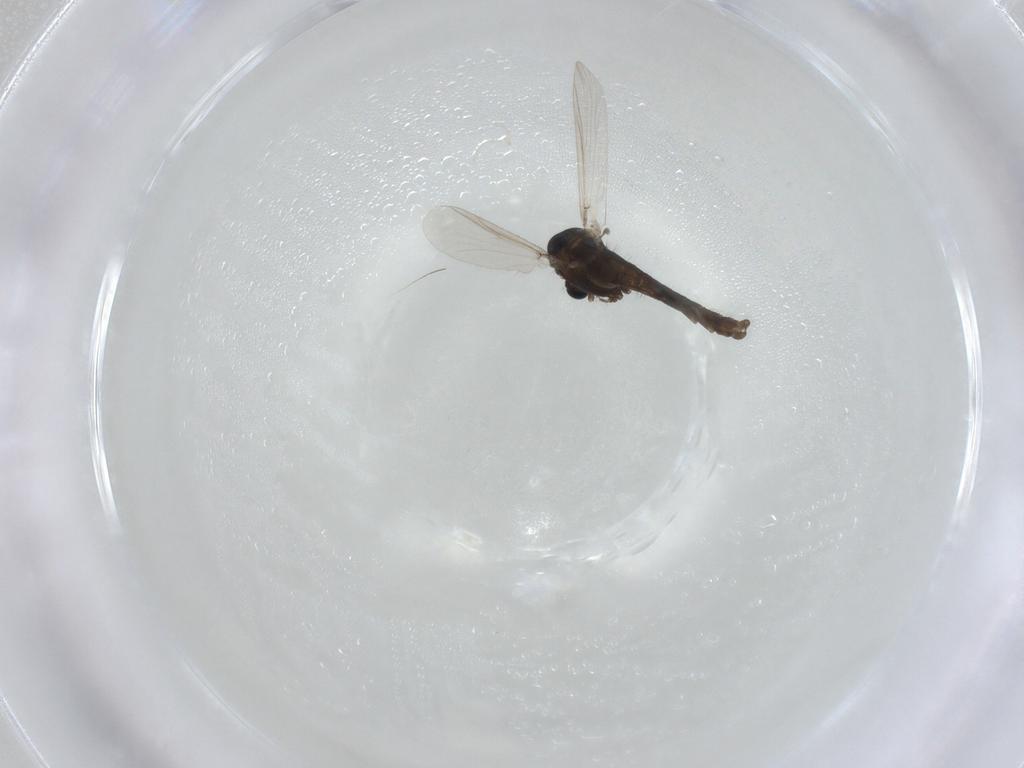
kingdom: Animalia
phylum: Arthropoda
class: Insecta
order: Diptera
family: Chironomidae
